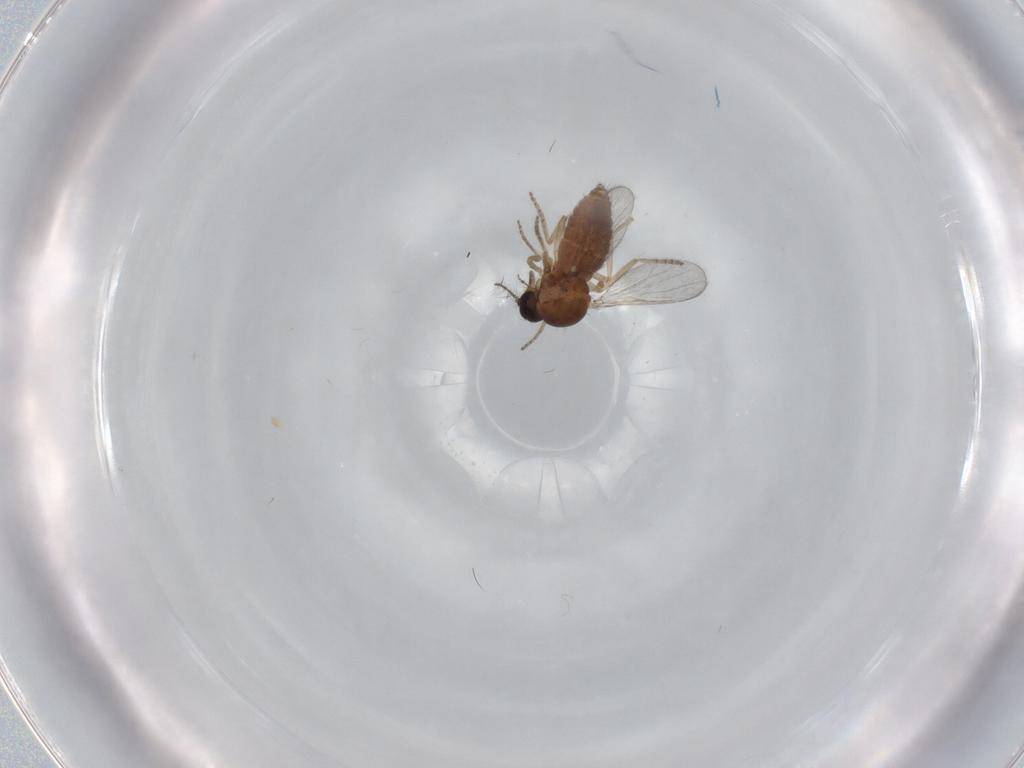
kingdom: Animalia
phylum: Arthropoda
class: Insecta
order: Diptera
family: Ceratopogonidae
